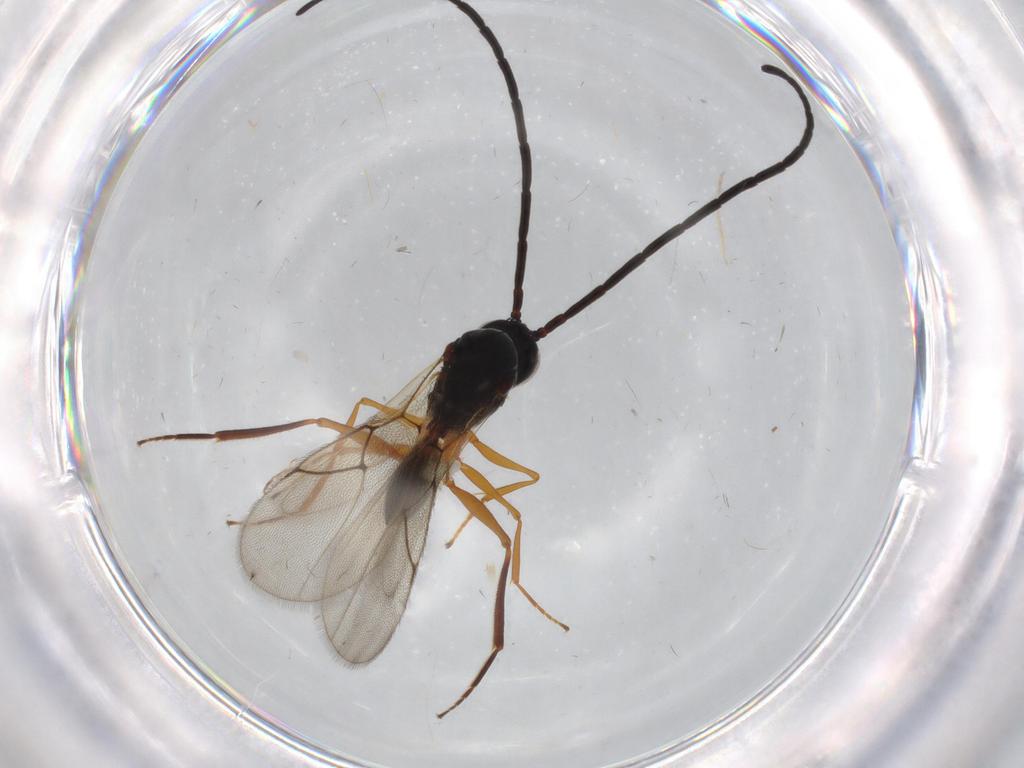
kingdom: Animalia
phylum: Arthropoda
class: Insecta
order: Hymenoptera
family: Figitidae
